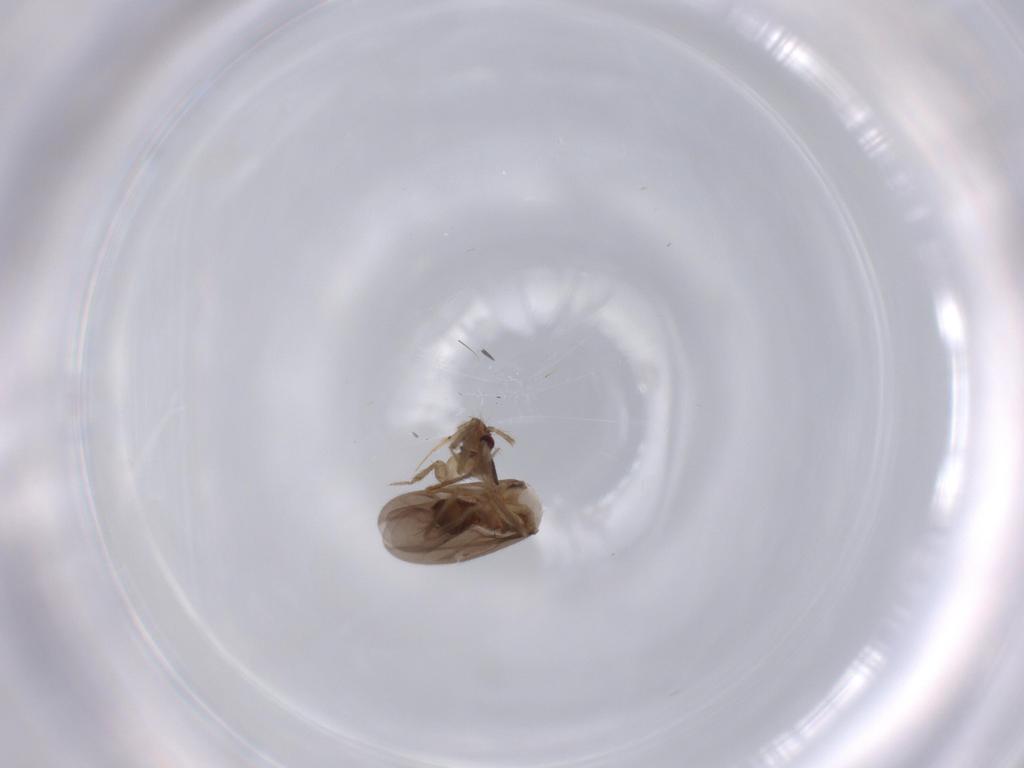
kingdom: Animalia
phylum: Arthropoda
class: Insecta
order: Hemiptera
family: Ceratocombidae
